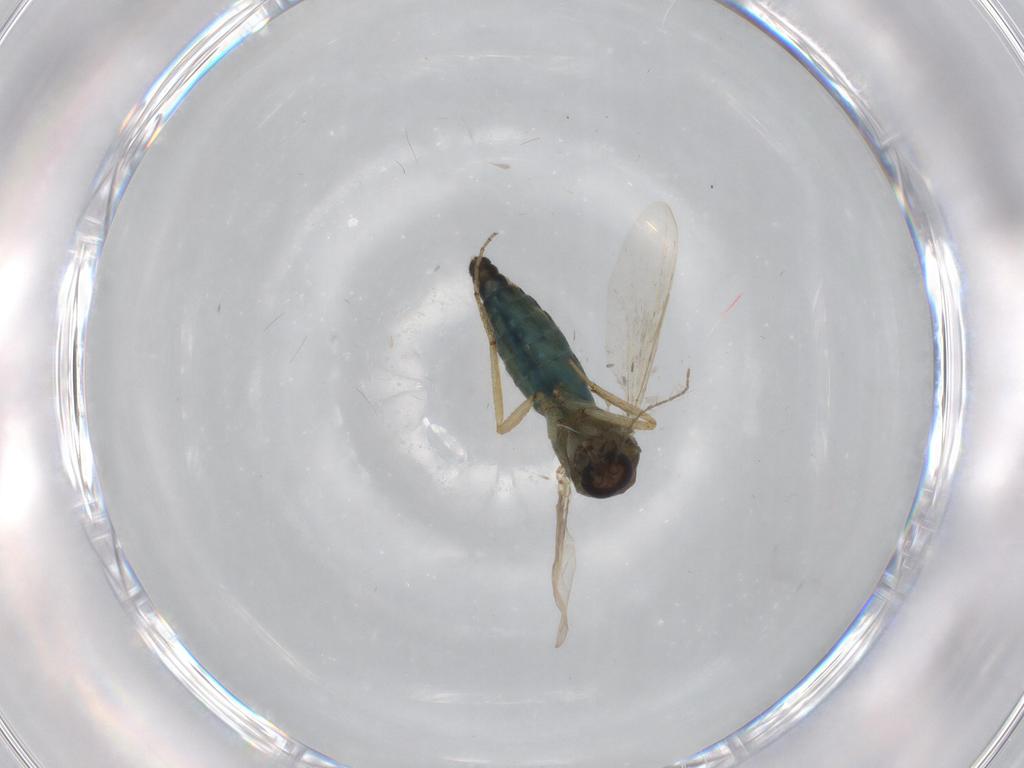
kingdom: Animalia
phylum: Arthropoda
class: Insecta
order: Diptera
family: Ceratopogonidae
